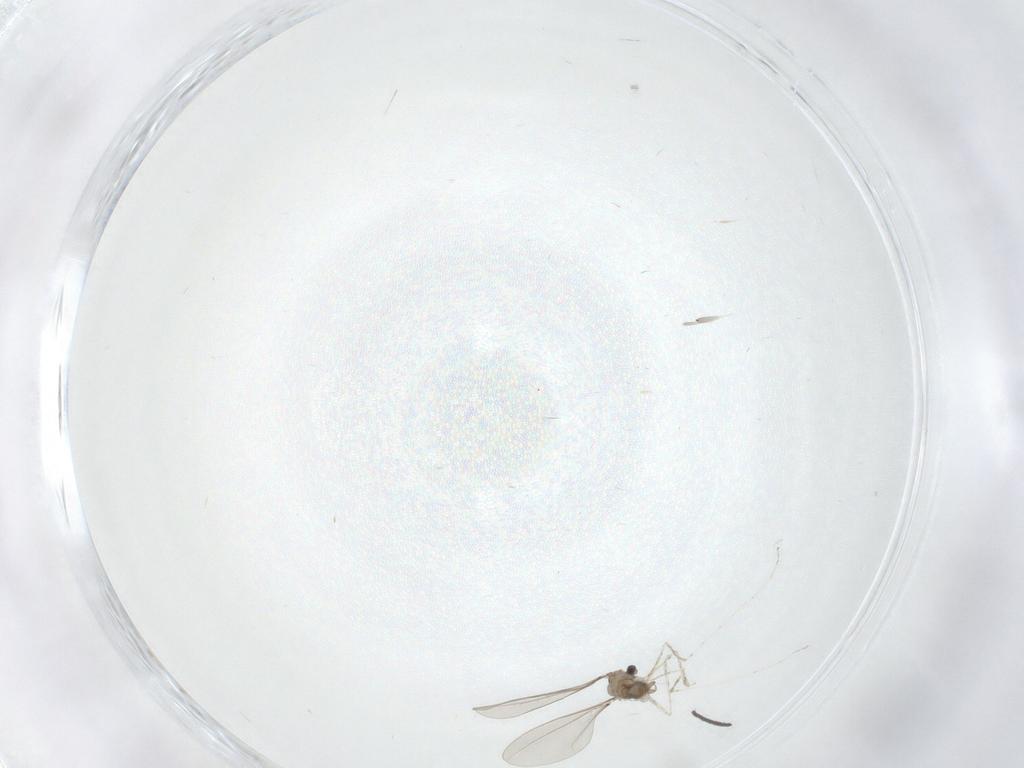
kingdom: Animalia
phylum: Arthropoda
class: Insecta
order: Diptera
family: Cecidomyiidae
